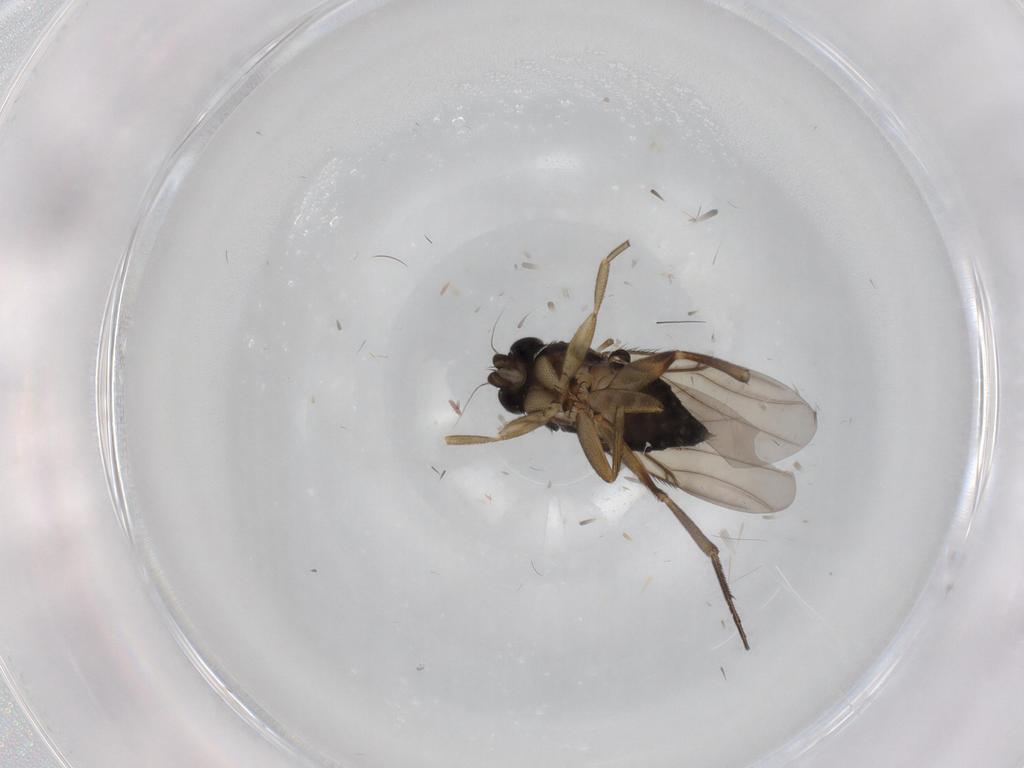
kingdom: Animalia
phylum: Arthropoda
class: Insecta
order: Diptera
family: Phoridae
